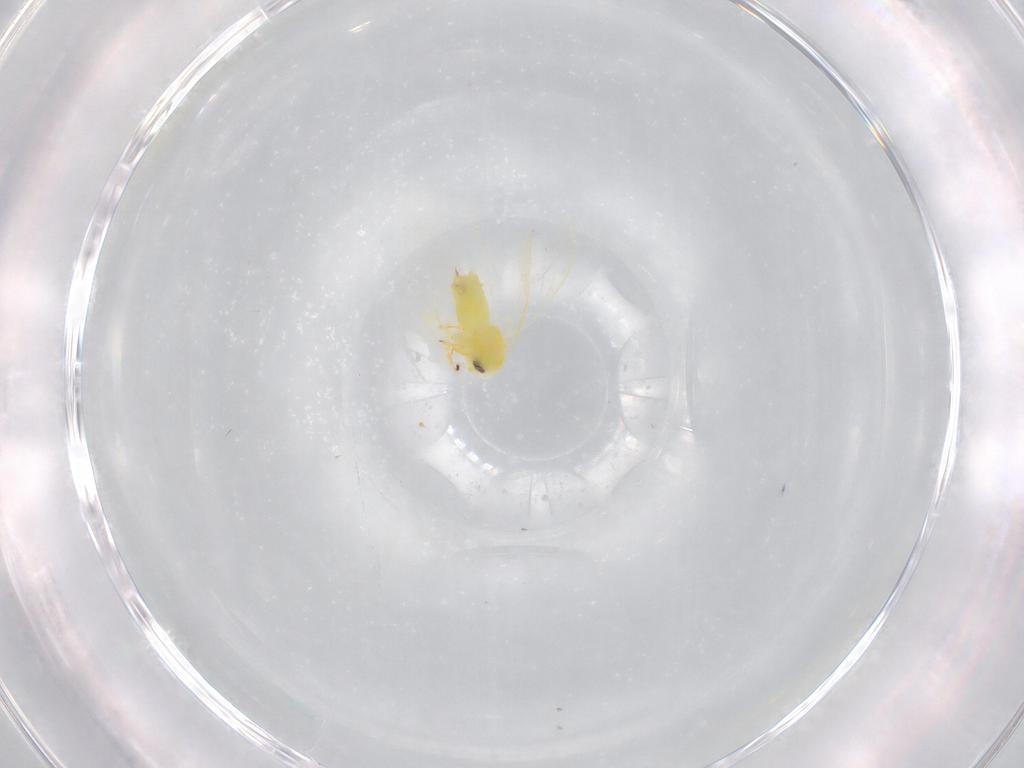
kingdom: Animalia
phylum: Arthropoda
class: Insecta
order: Hemiptera
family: Aleyrodidae
